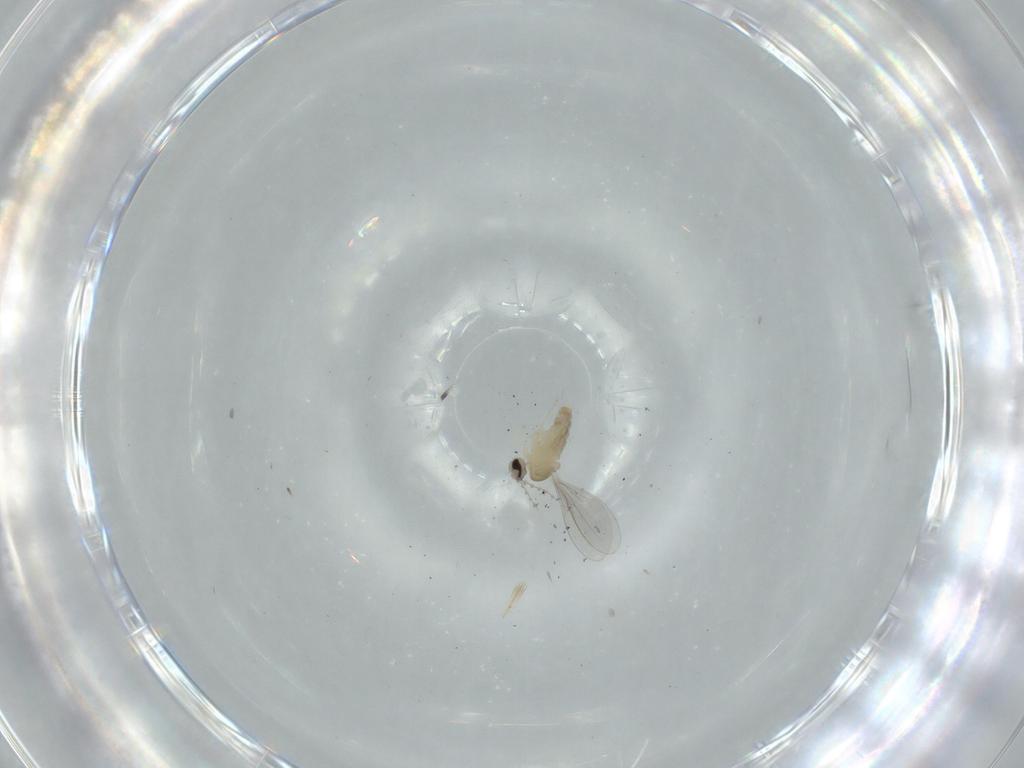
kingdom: Animalia
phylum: Arthropoda
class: Insecta
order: Diptera
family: Cecidomyiidae
